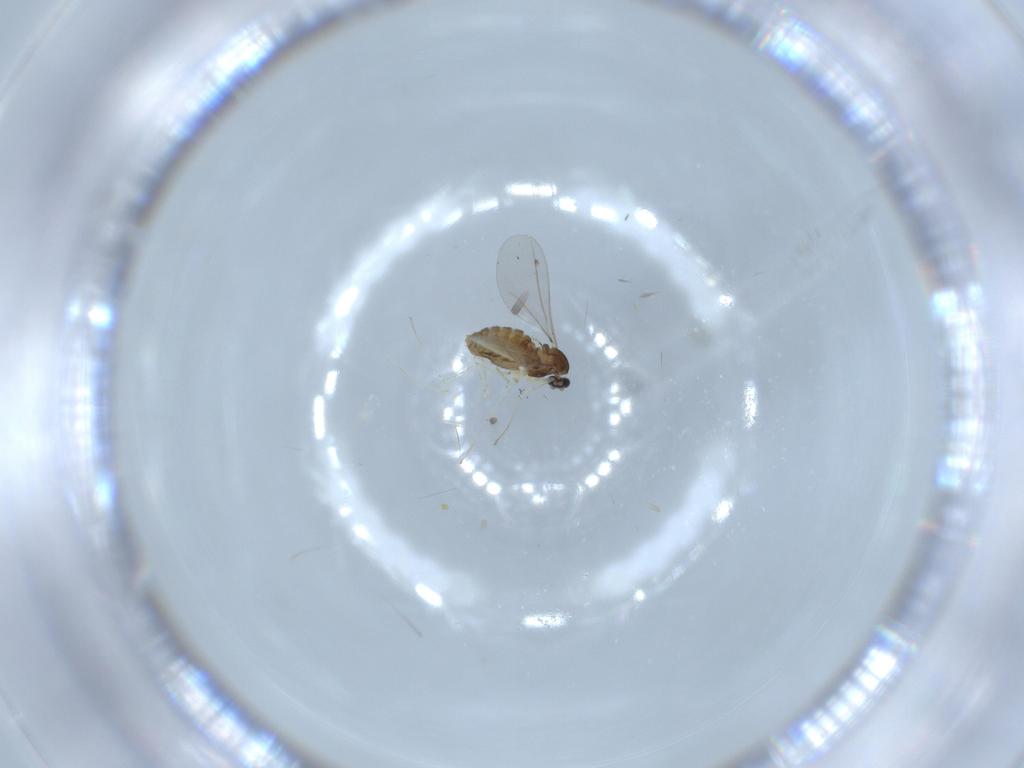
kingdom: Animalia
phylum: Arthropoda
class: Insecta
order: Diptera
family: Cecidomyiidae
